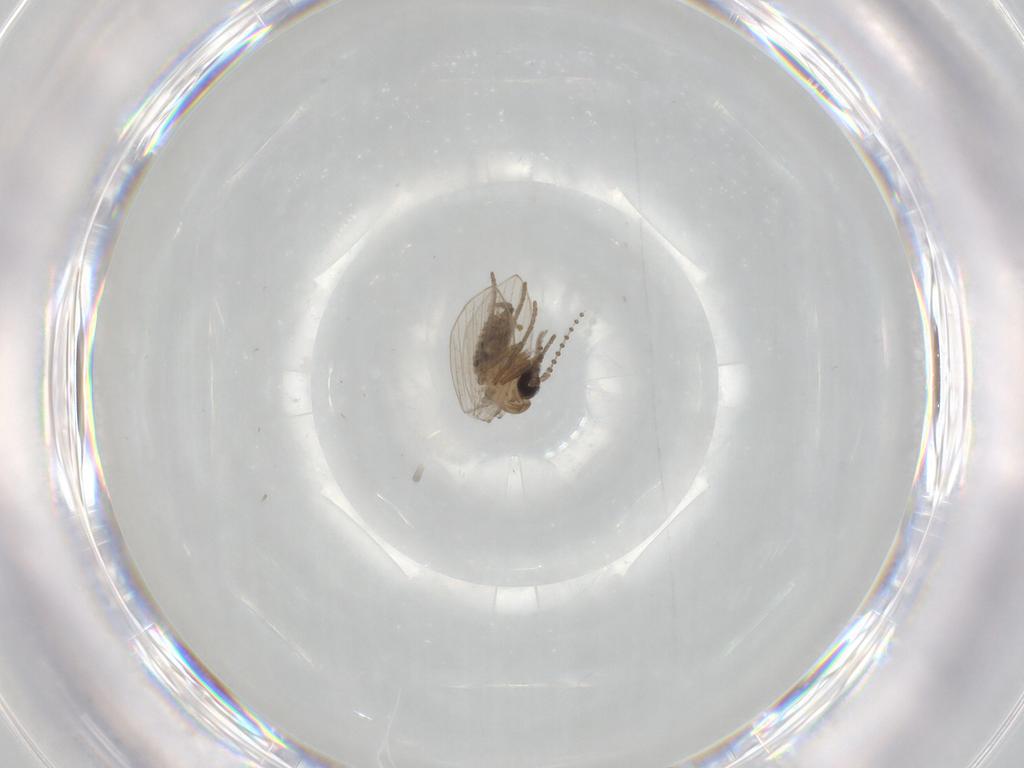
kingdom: Animalia
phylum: Arthropoda
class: Insecta
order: Diptera
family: Psychodidae
